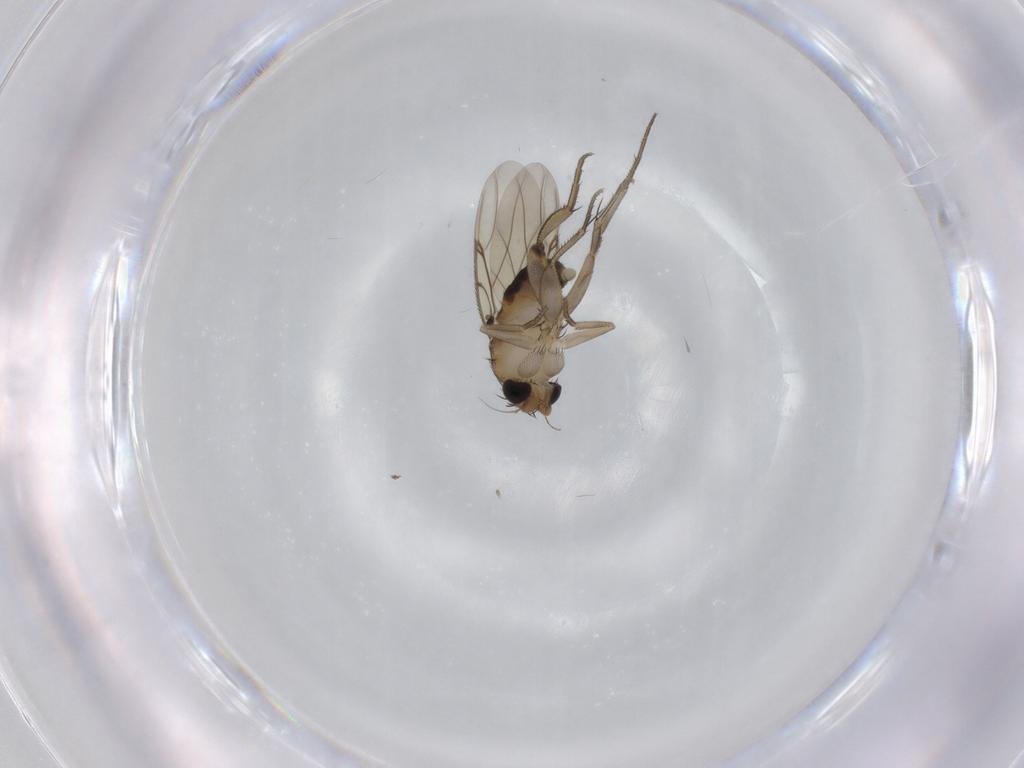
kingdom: Animalia
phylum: Arthropoda
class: Insecta
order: Diptera
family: Phoridae
